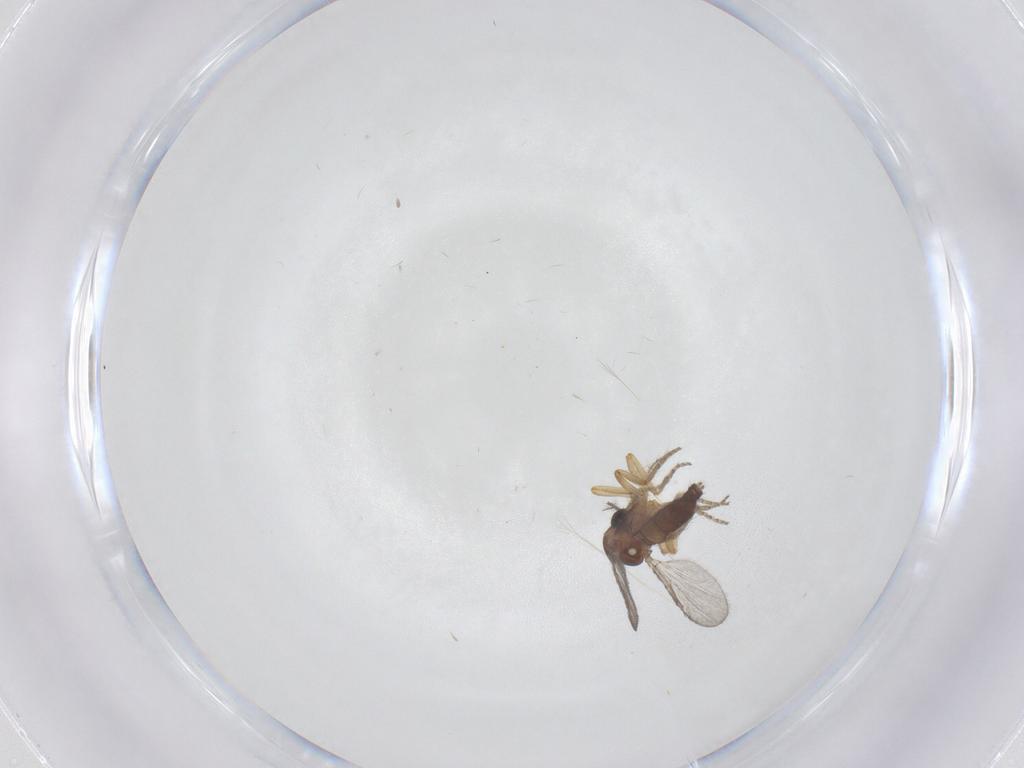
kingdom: Animalia
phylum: Arthropoda
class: Insecta
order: Diptera
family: Ceratopogonidae
